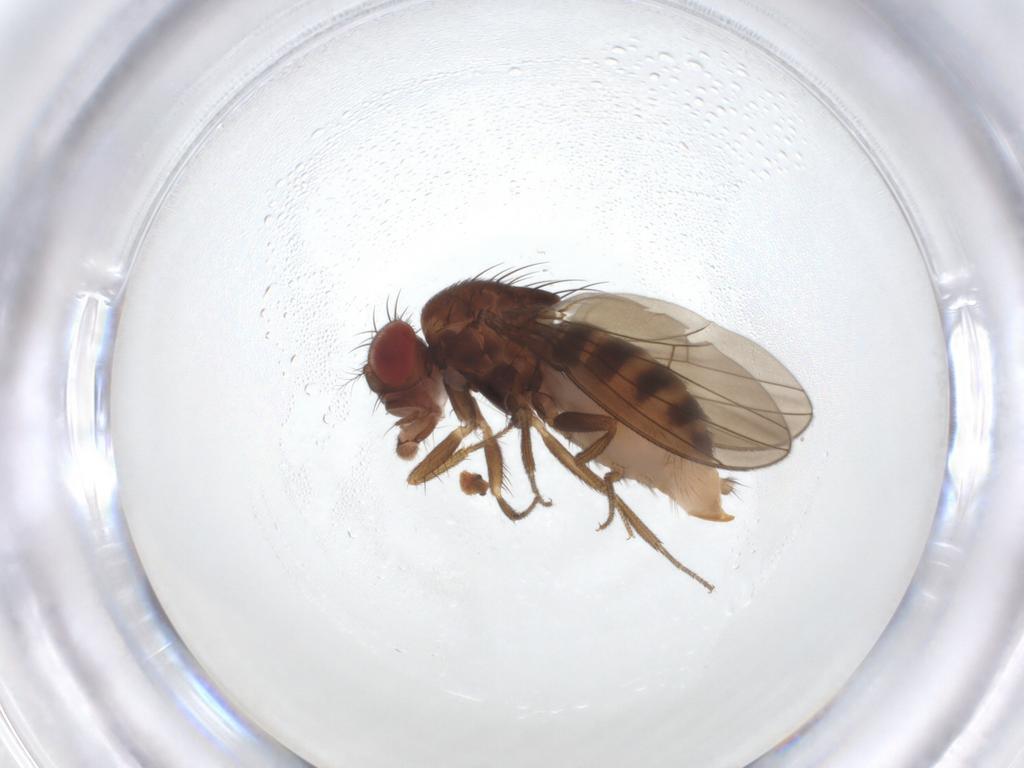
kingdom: Animalia
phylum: Arthropoda
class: Insecta
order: Diptera
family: Drosophilidae
